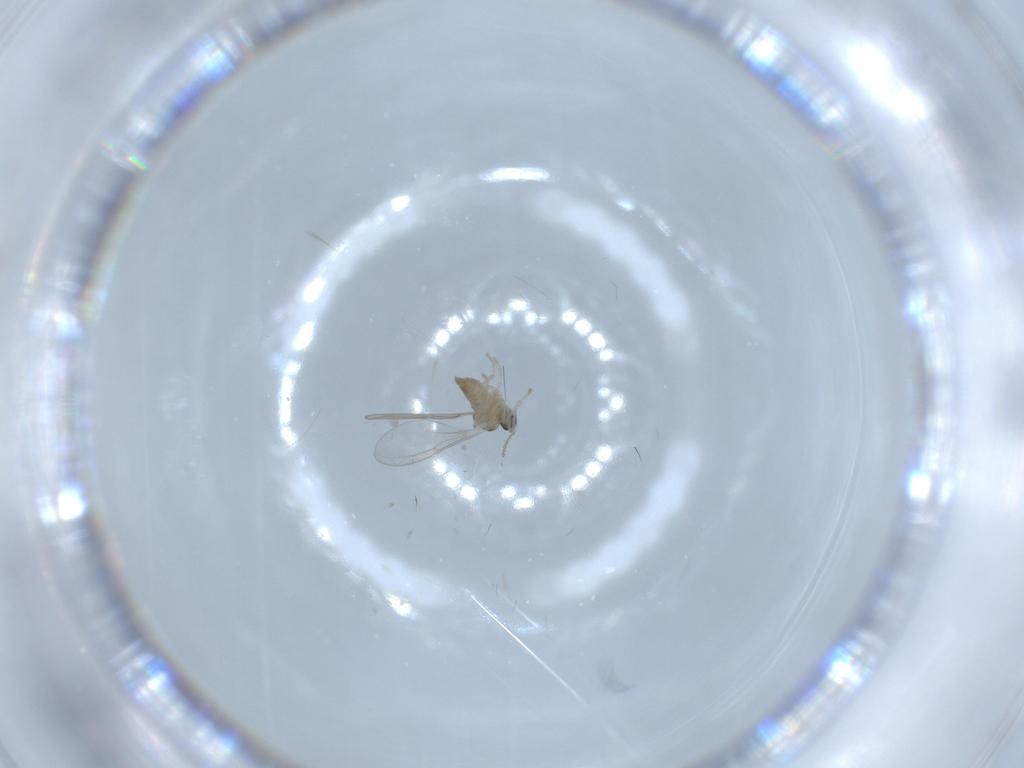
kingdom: Animalia
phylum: Arthropoda
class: Insecta
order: Diptera
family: Cecidomyiidae
